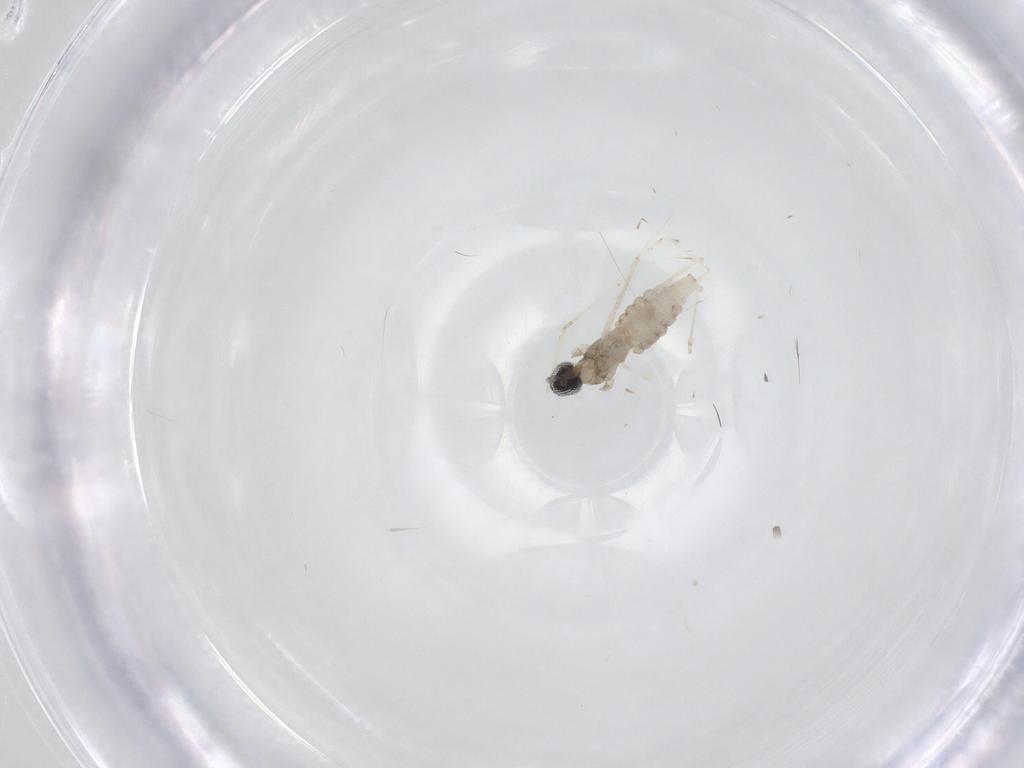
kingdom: Animalia
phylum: Arthropoda
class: Insecta
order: Diptera
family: Cecidomyiidae
